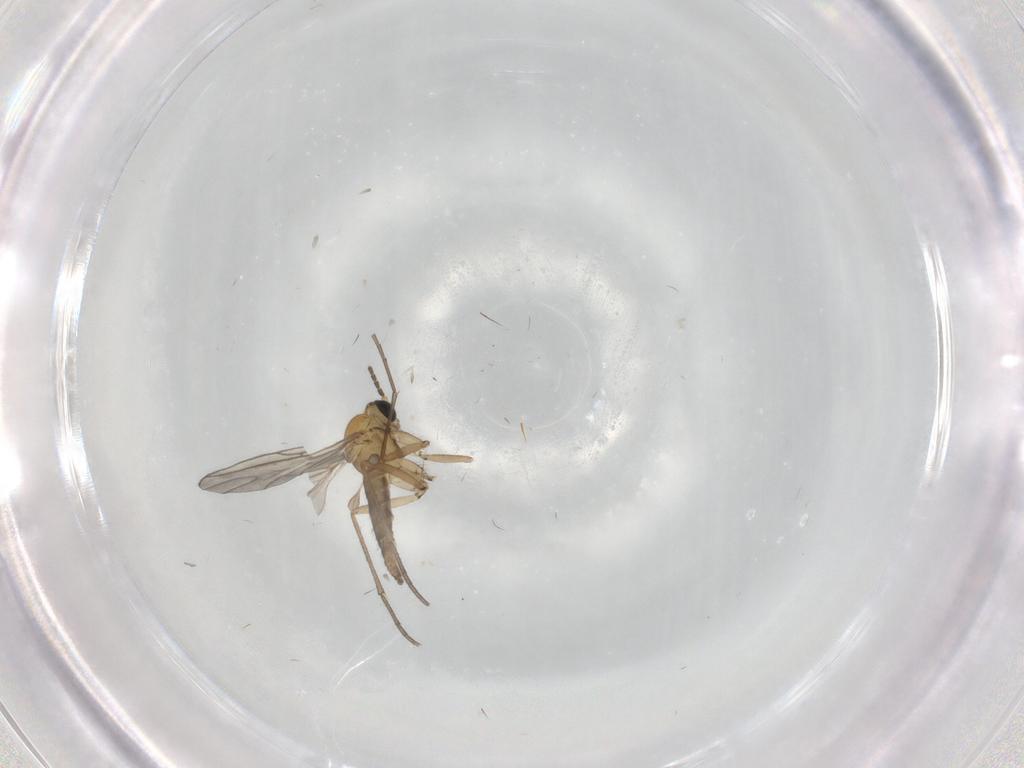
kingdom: Animalia
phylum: Arthropoda
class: Insecta
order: Diptera
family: Sciaridae
